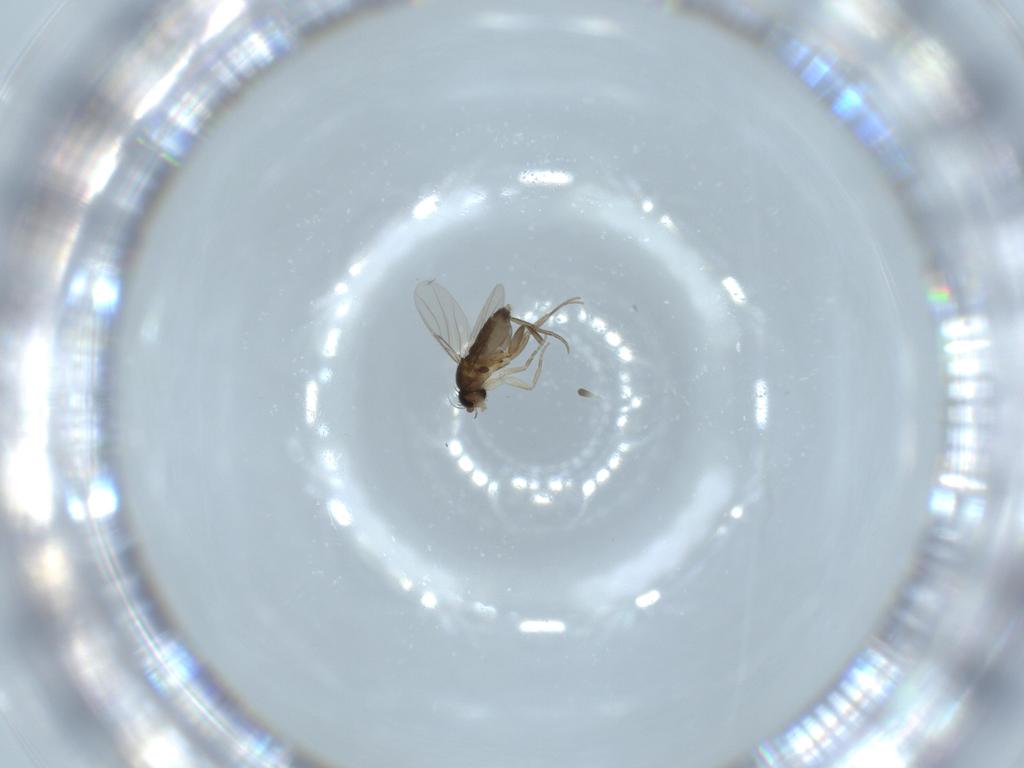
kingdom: Animalia
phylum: Arthropoda
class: Insecta
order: Diptera
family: Phoridae
